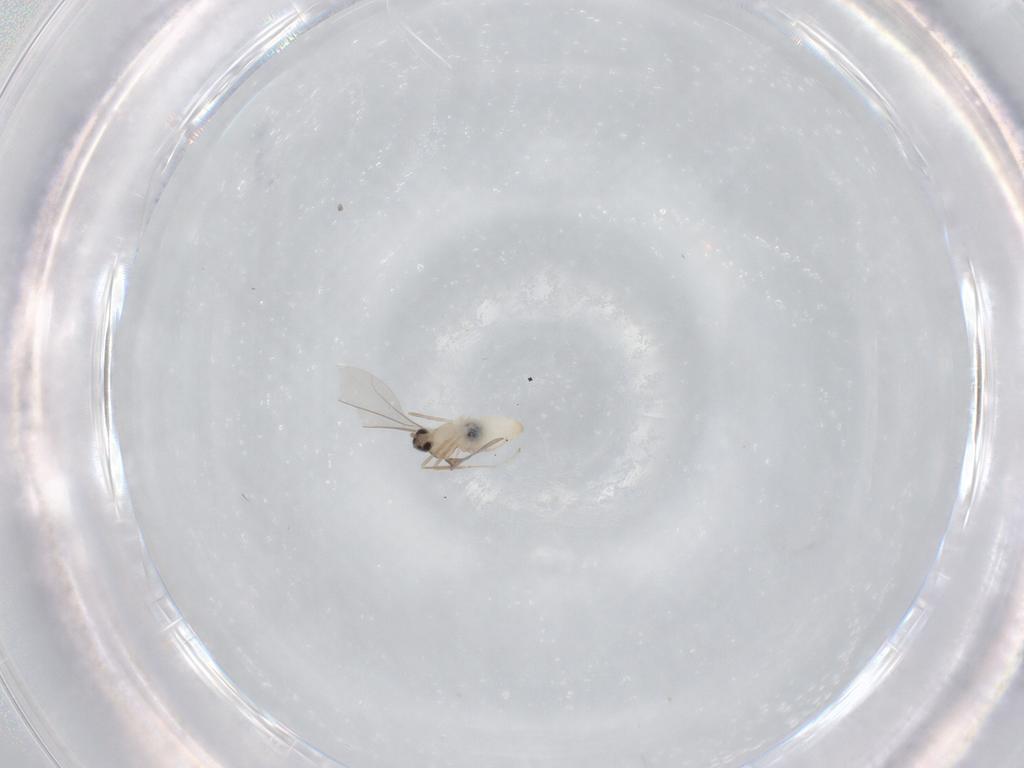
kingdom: Animalia
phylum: Arthropoda
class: Insecta
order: Diptera
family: Cecidomyiidae
